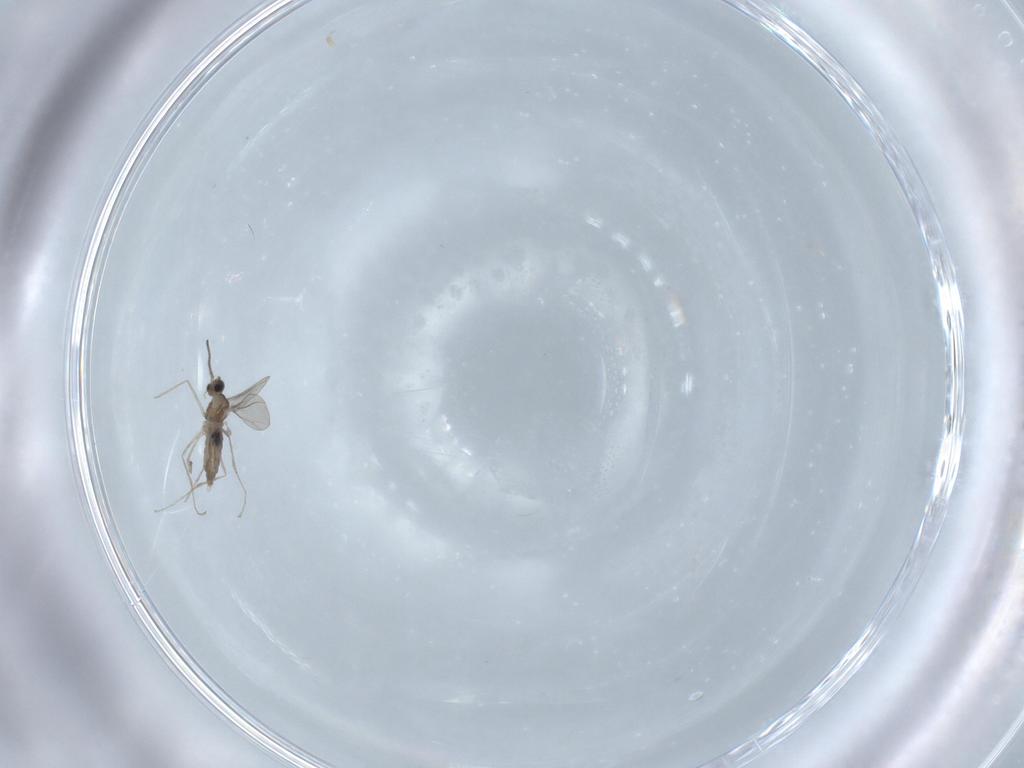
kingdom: Animalia
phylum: Arthropoda
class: Insecta
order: Diptera
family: Dolichopodidae
